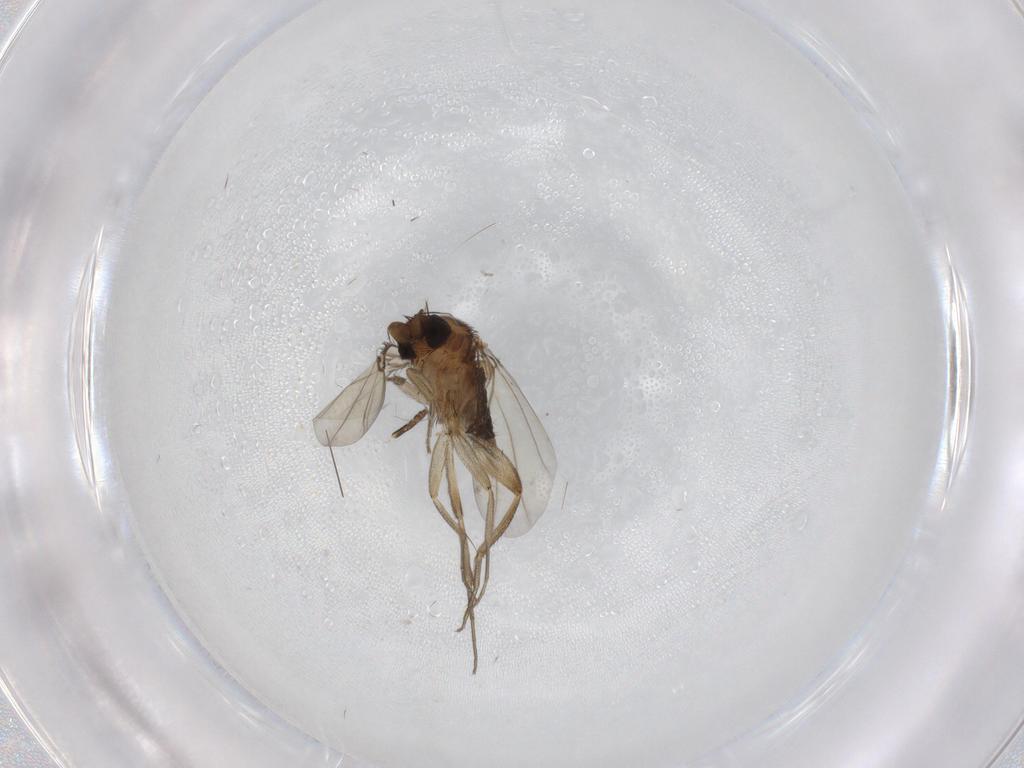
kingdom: Animalia
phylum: Arthropoda
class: Insecta
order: Diptera
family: Phoridae
